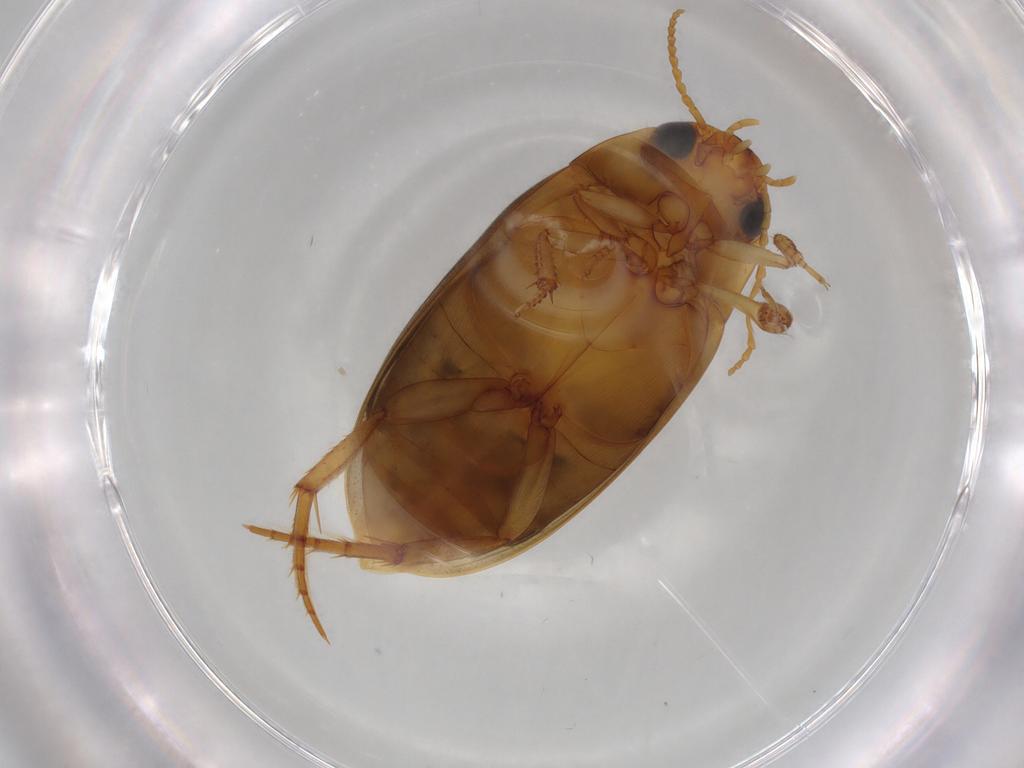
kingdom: Animalia
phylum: Arthropoda
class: Insecta
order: Coleoptera
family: Dytiscidae
